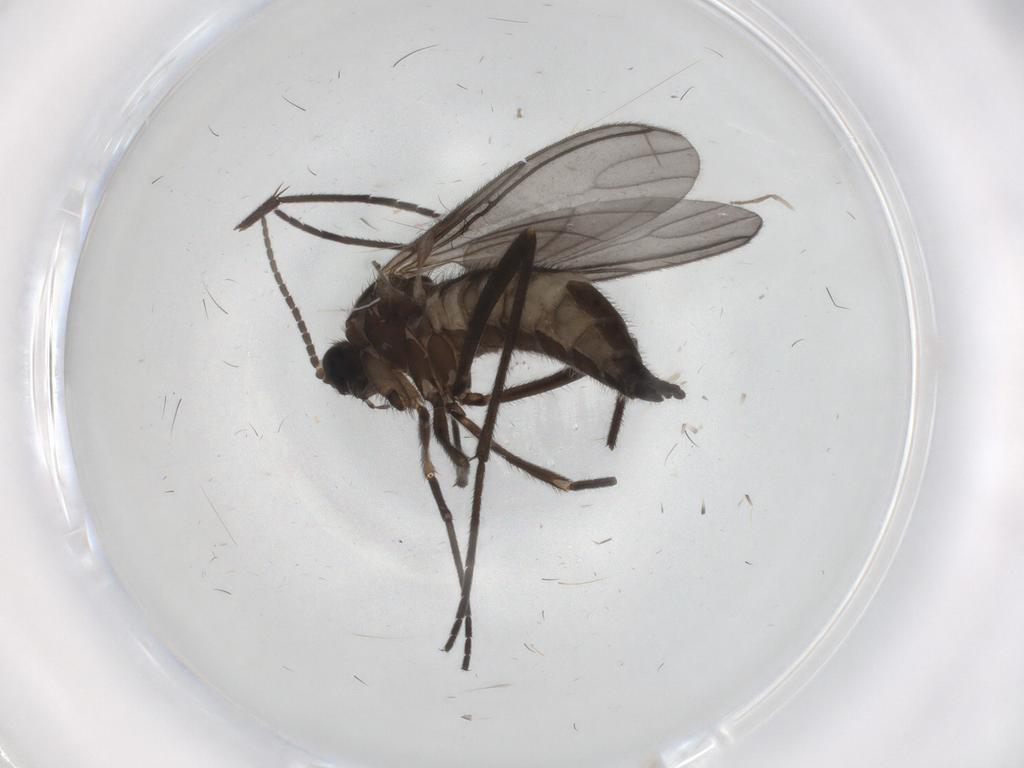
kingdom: Animalia
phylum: Arthropoda
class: Insecta
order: Diptera
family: Sciaridae
